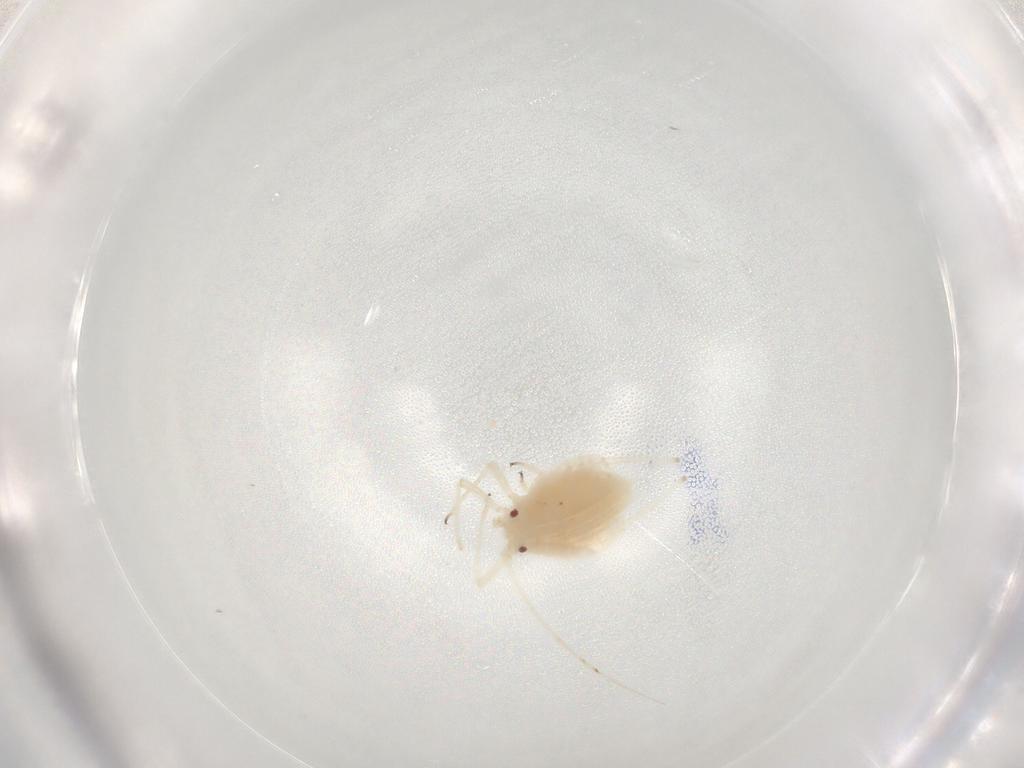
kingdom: Animalia
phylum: Arthropoda
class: Insecta
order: Hemiptera
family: Aphididae
